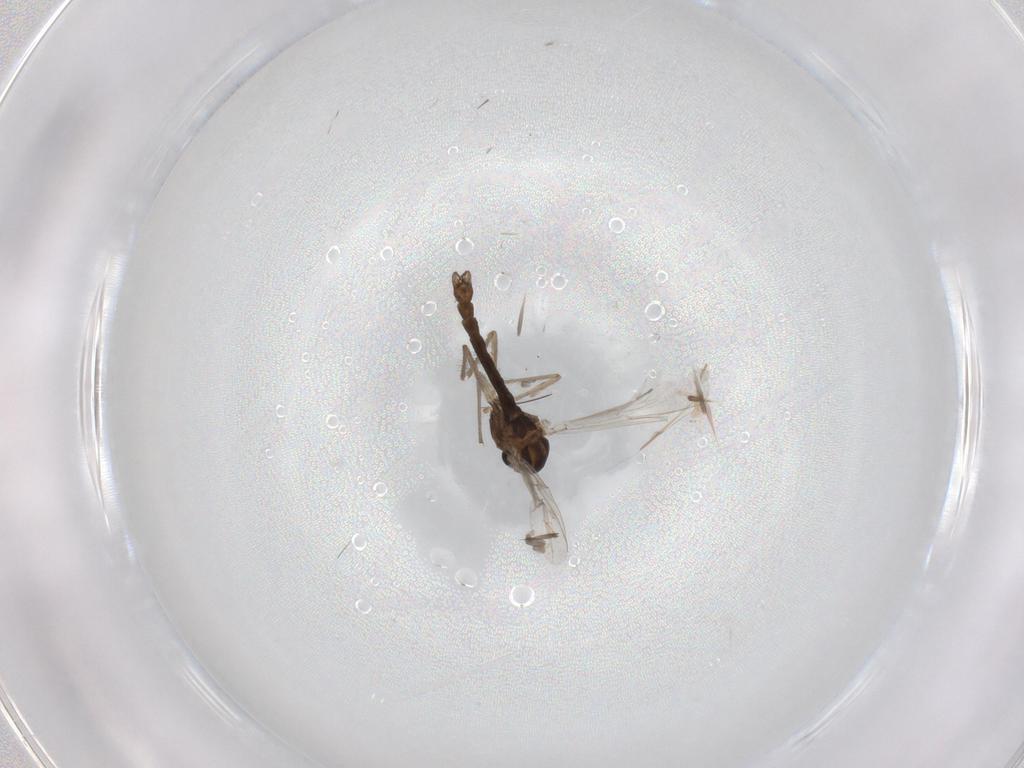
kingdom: Animalia
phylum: Arthropoda
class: Insecta
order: Diptera
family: Chironomidae
